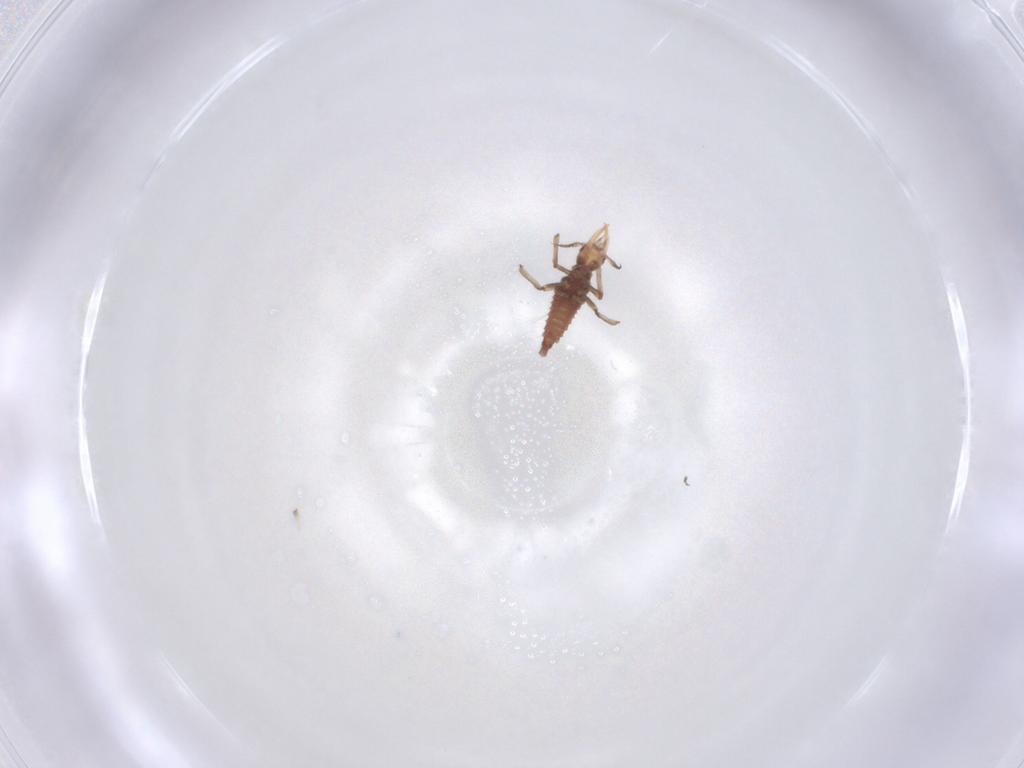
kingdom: Animalia
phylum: Arthropoda
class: Insecta
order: Neuroptera
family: Hemerobiidae
